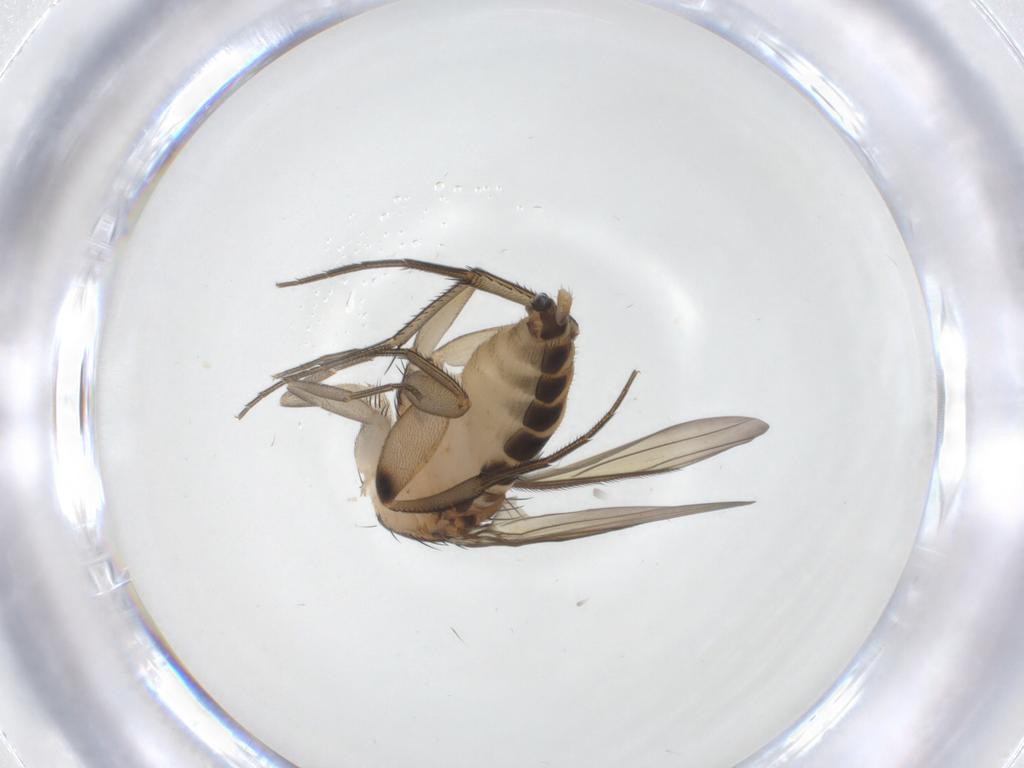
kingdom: Animalia
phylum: Arthropoda
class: Insecta
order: Diptera
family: Phoridae
